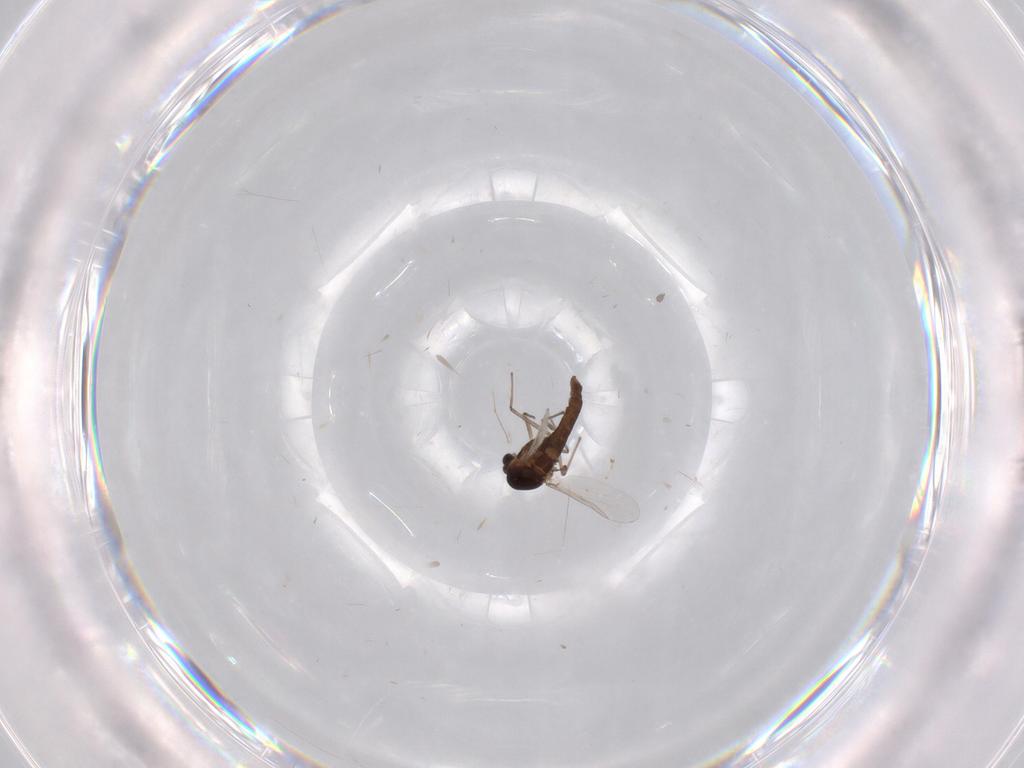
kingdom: Animalia
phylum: Arthropoda
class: Insecta
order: Diptera
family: Chironomidae
